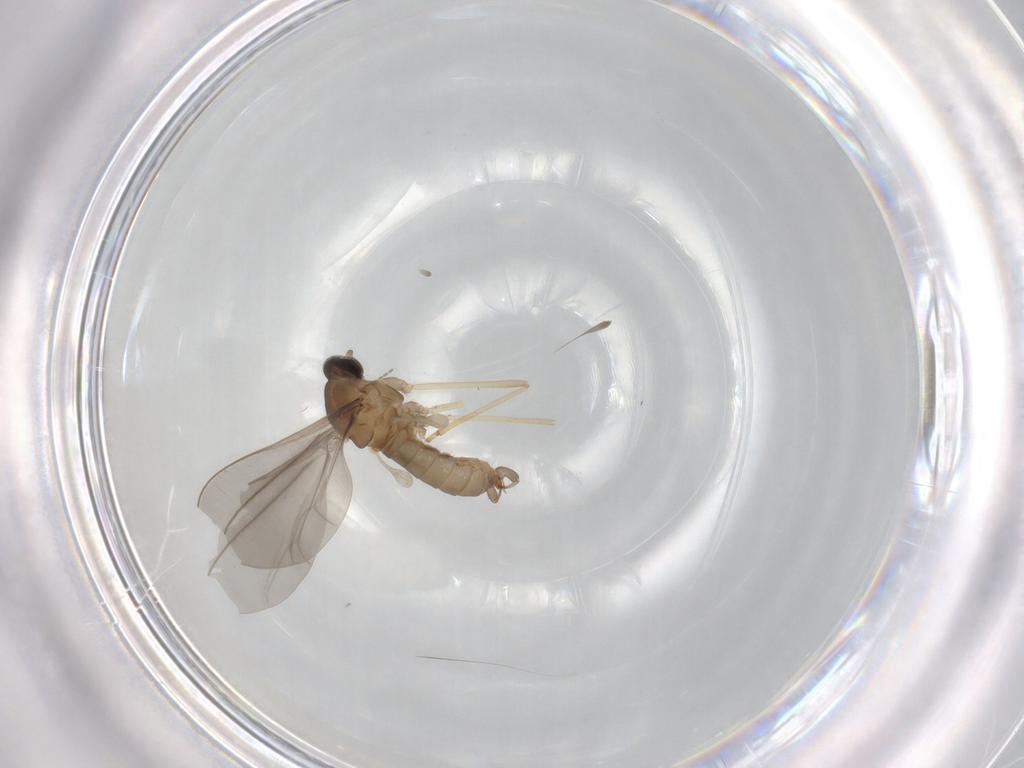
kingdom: Animalia
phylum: Arthropoda
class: Insecta
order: Diptera
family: Cecidomyiidae
